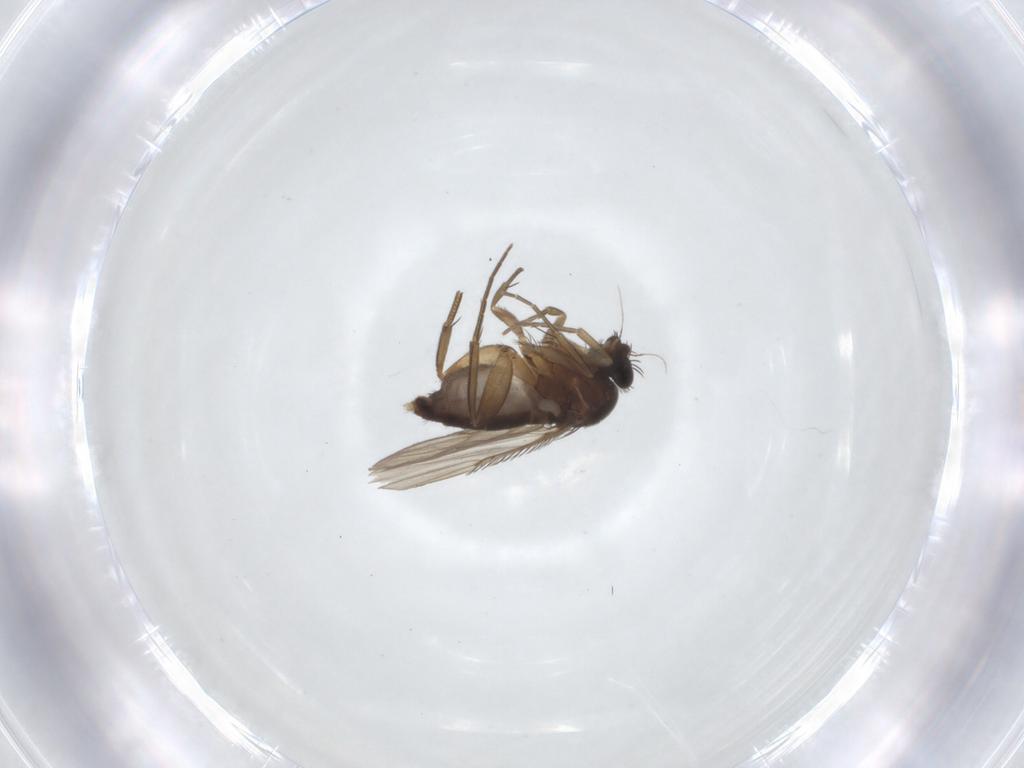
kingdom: Animalia
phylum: Arthropoda
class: Insecta
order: Diptera
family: Phoridae
